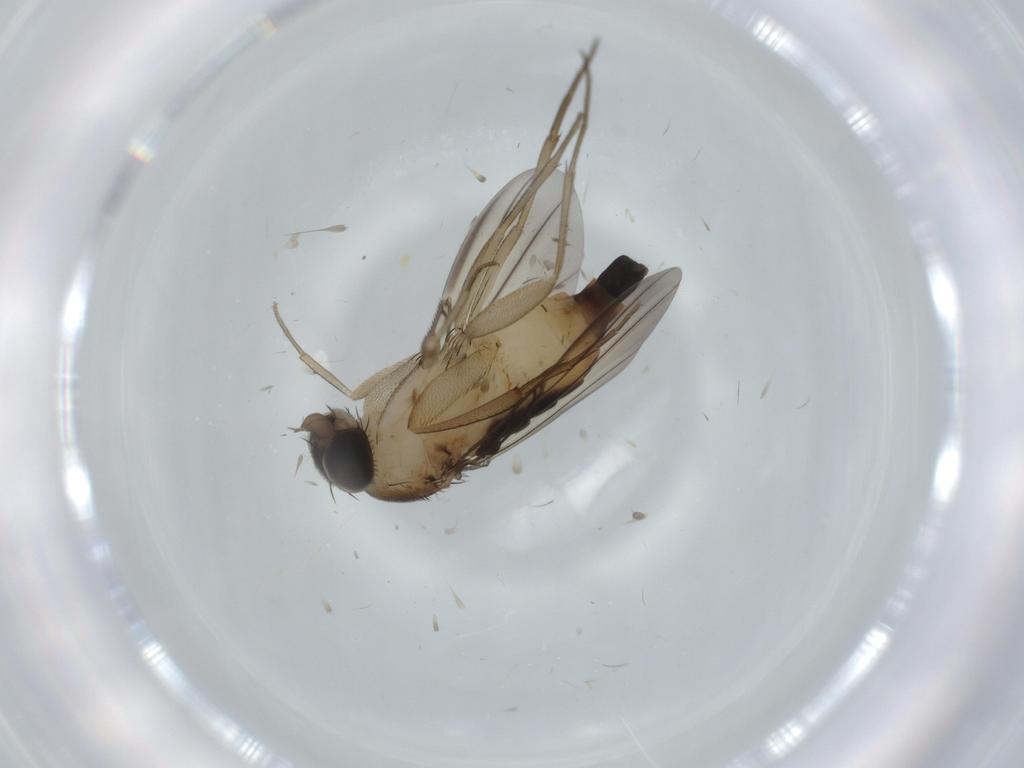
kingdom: Animalia
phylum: Arthropoda
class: Insecta
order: Diptera
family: Phoridae
